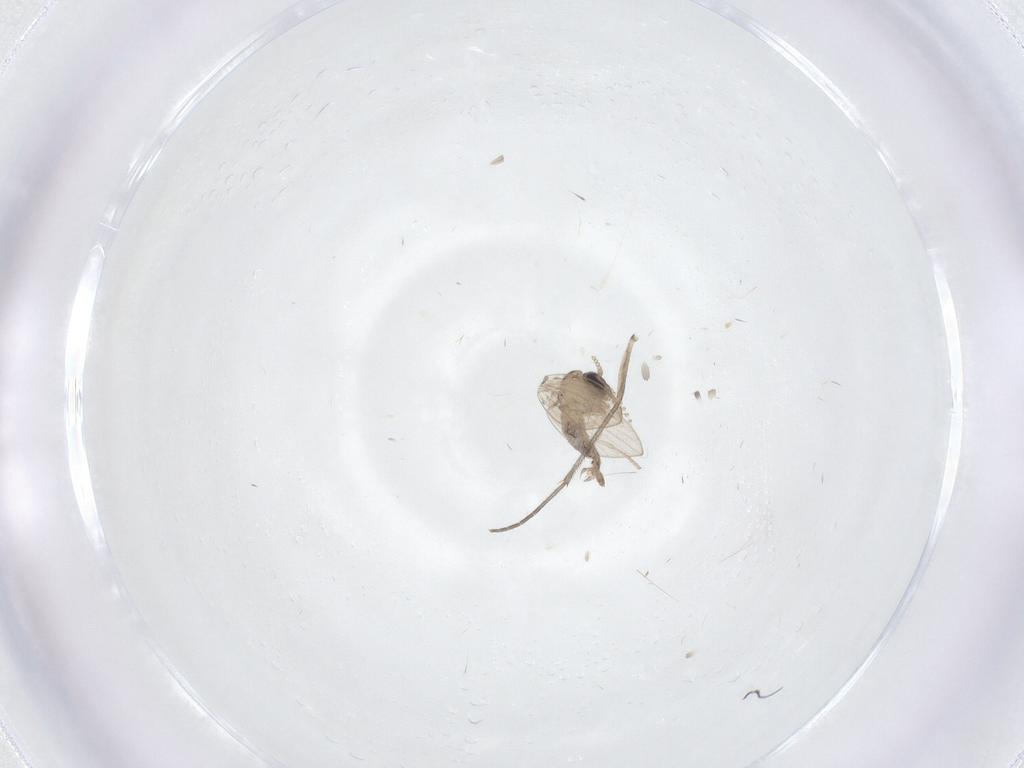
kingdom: Animalia
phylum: Arthropoda
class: Insecta
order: Diptera
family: Psychodidae
